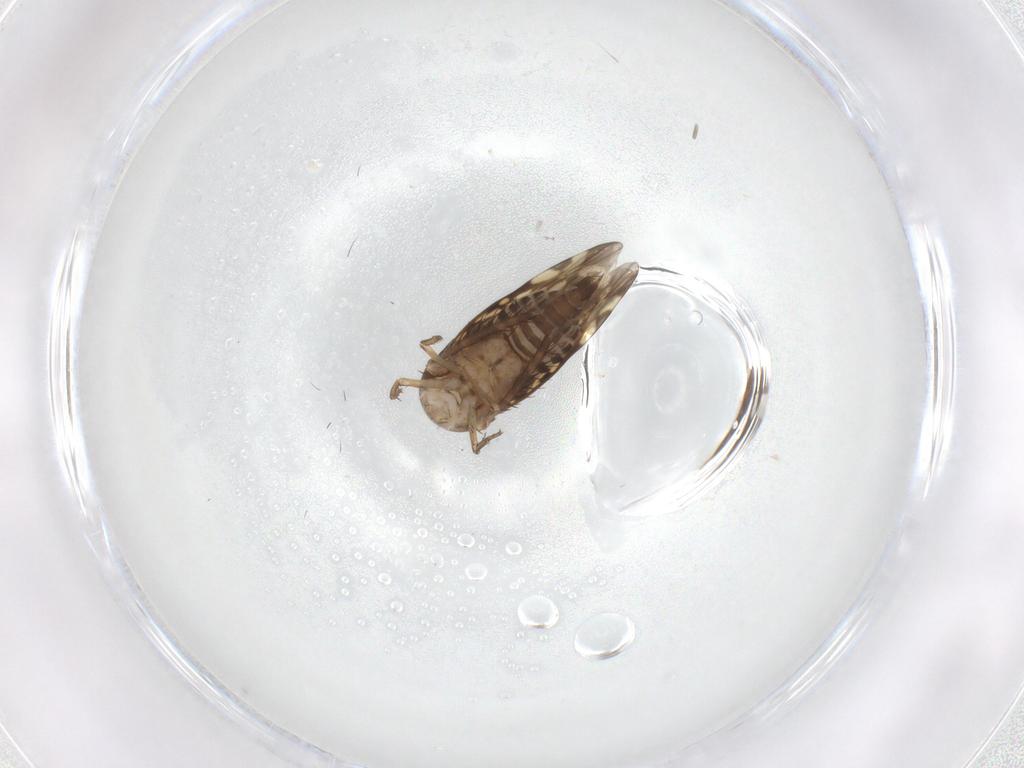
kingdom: Animalia
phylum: Arthropoda
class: Insecta
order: Hemiptera
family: Cicadellidae
